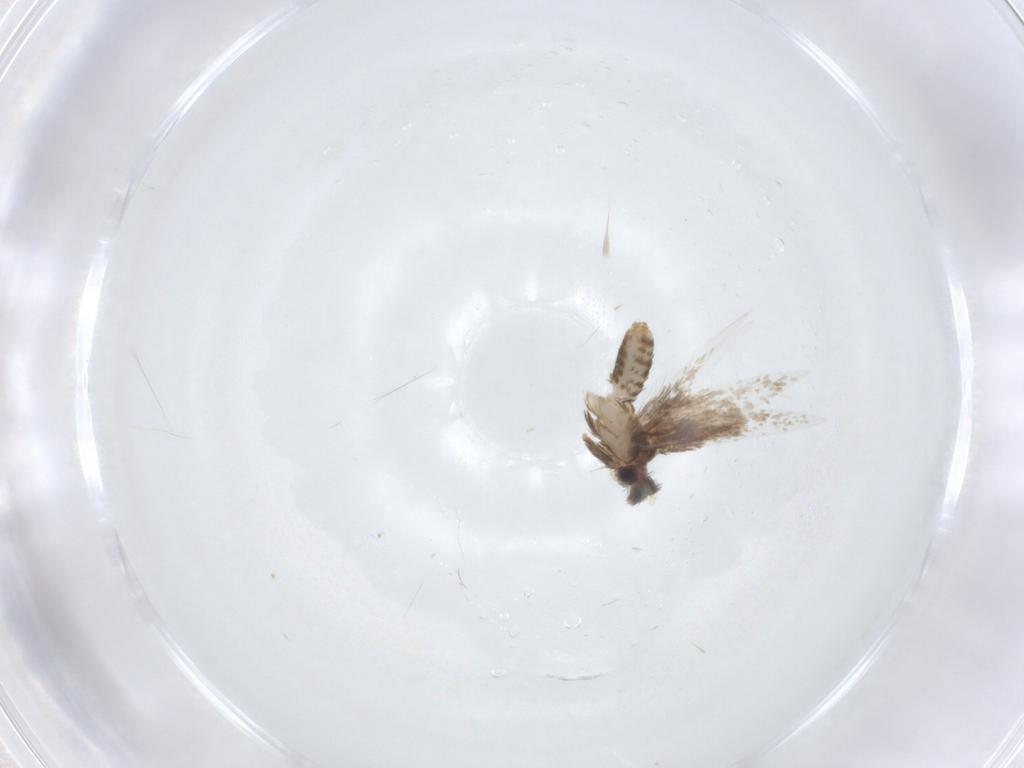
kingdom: Animalia
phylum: Arthropoda
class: Insecta
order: Lepidoptera
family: Nepticulidae
